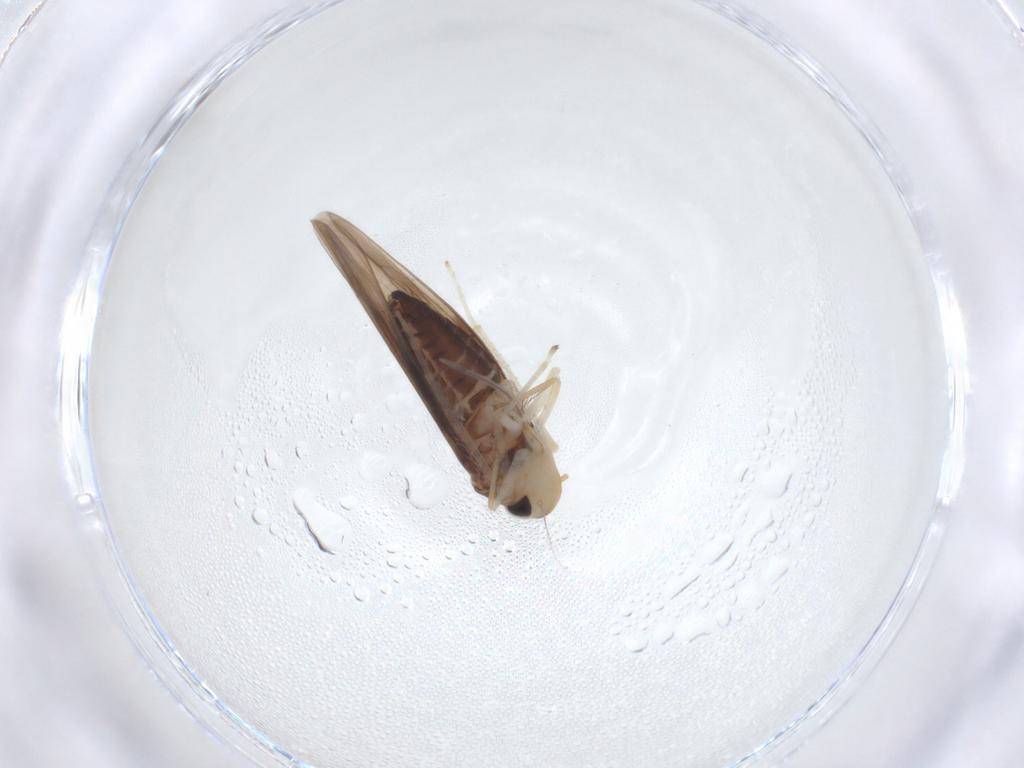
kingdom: Animalia
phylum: Arthropoda
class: Insecta
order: Hemiptera
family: Cicadellidae
